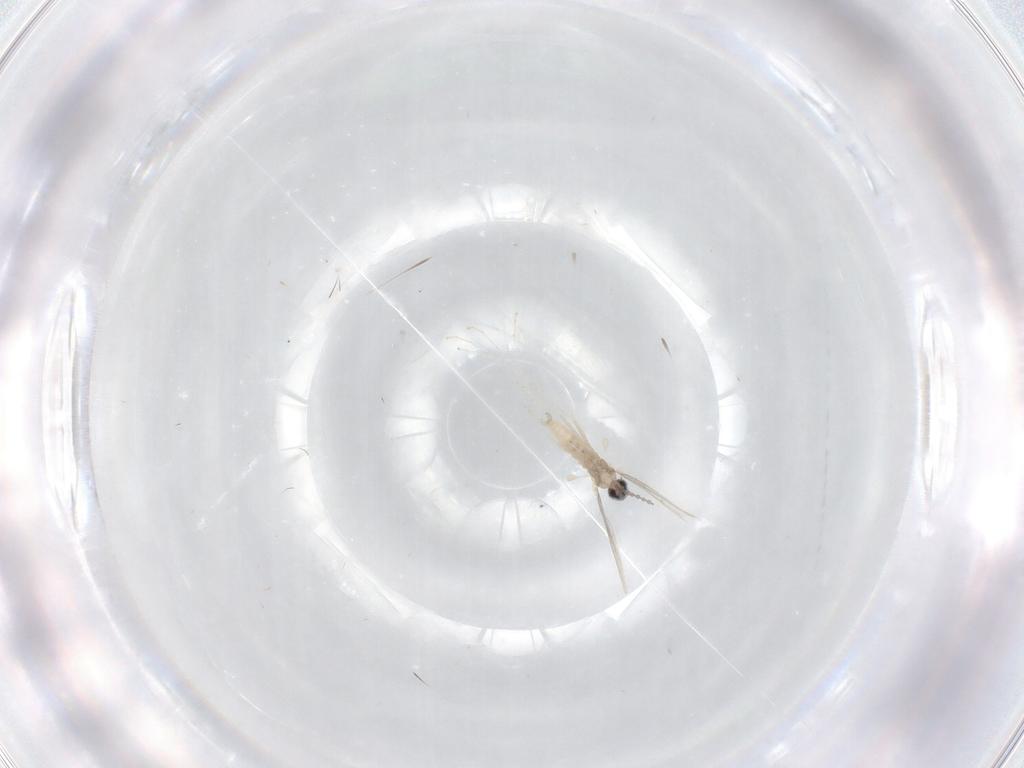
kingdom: Animalia
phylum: Arthropoda
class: Insecta
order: Diptera
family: Cecidomyiidae
